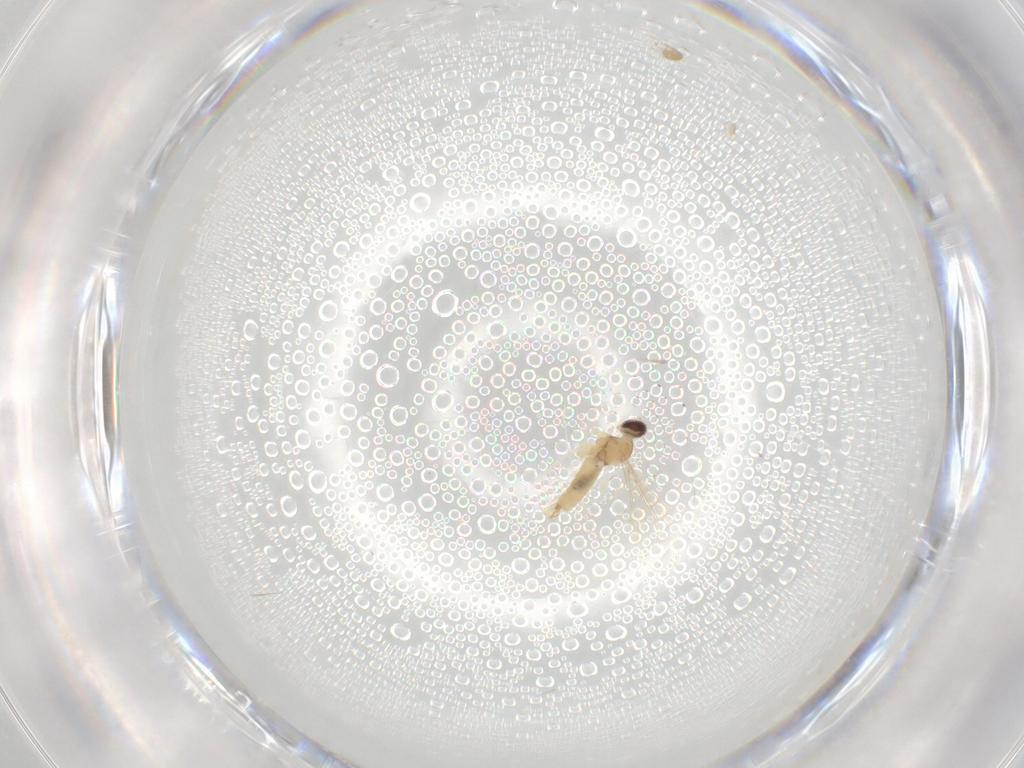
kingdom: Animalia
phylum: Arthropoda
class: Insecta
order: Diptera
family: Cecidomyiidae
